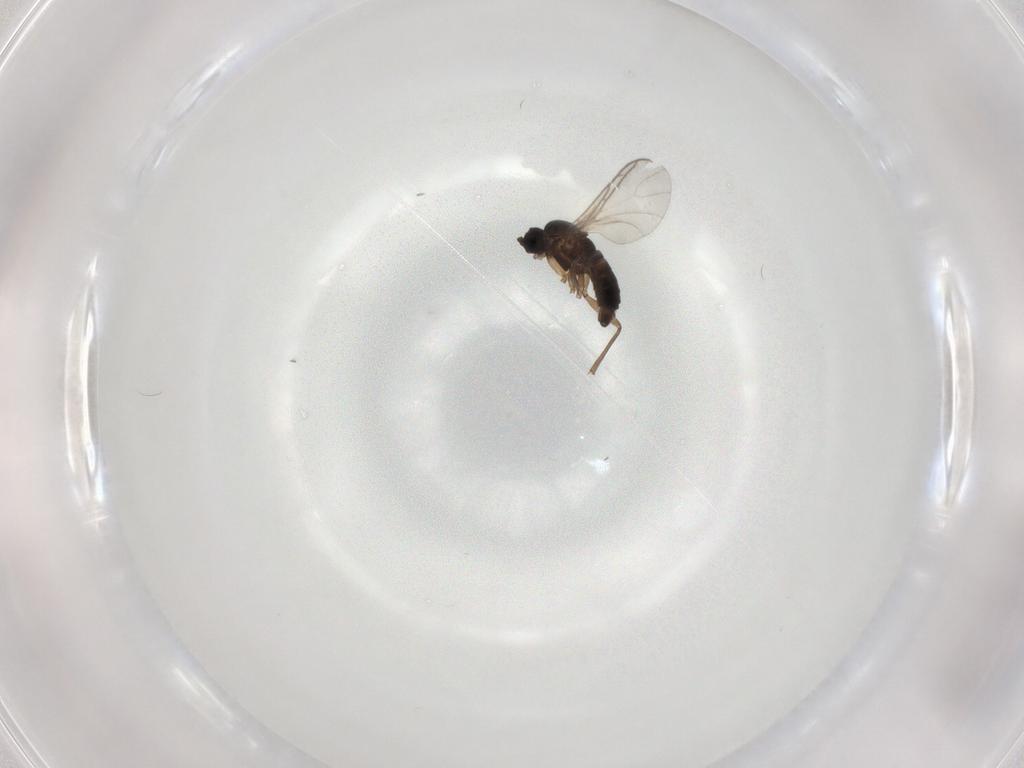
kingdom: Animalia
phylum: Arthropoda
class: Insecta
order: Diptera
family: Sciaridae
